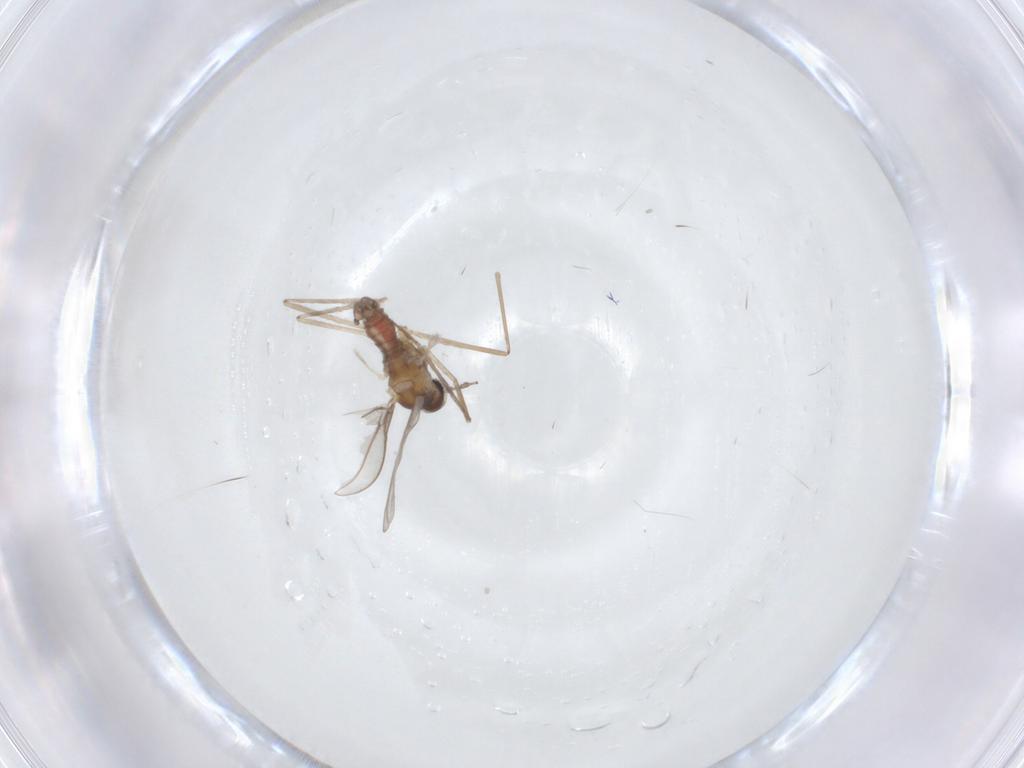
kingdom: Animalia
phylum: Arthropoda
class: Insecta
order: Diptera
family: Cecidomyiidae
